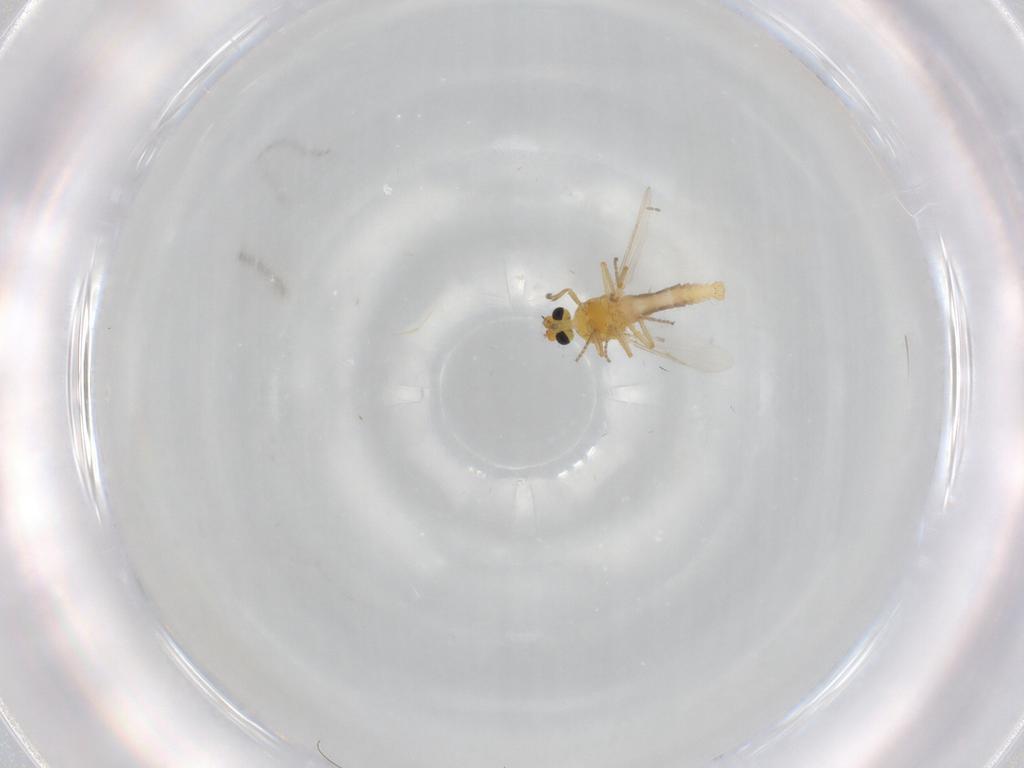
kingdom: Animalia
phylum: Arthropoda
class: Insecta
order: Diptera
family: Ceratopogonidae
